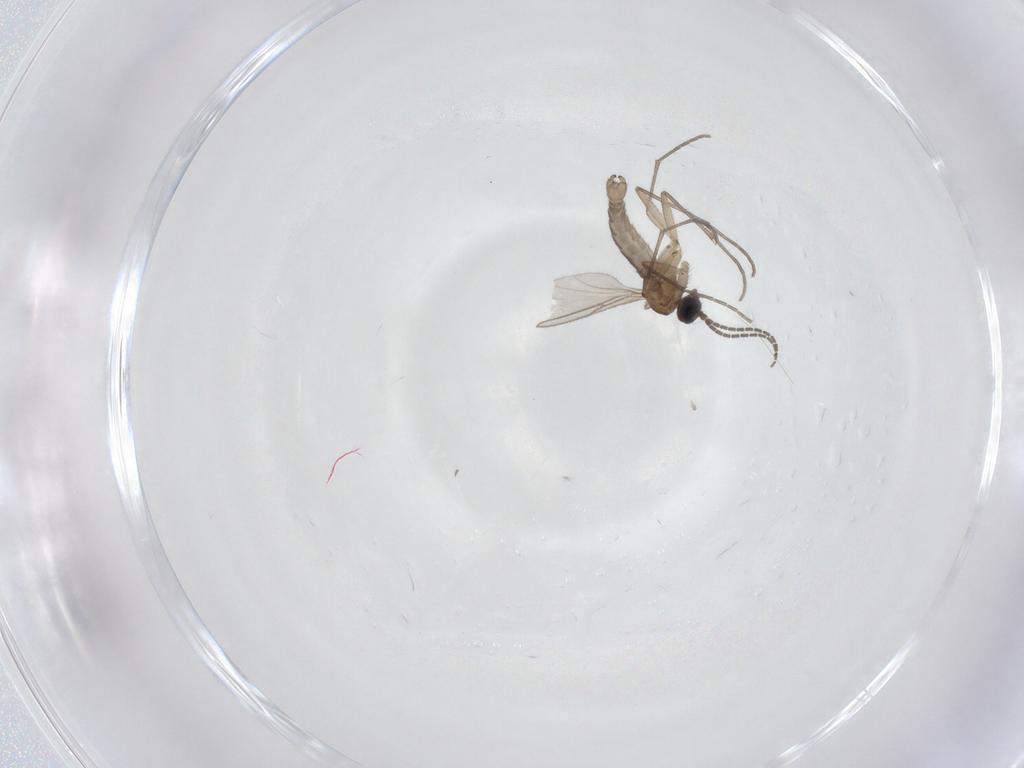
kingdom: Animalia
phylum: Arthropoda
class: Insecta
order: Diptera
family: Sciaridae
